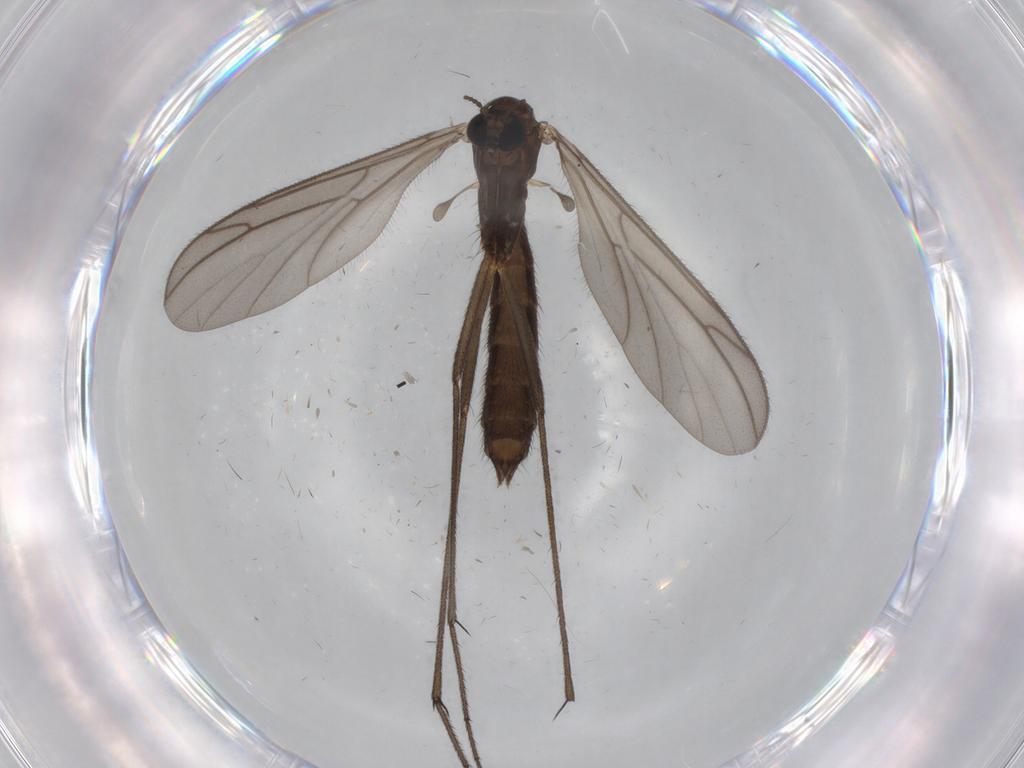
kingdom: Animalia
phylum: Arthropoda
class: Insecta
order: Diptera
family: Keroplatidae
